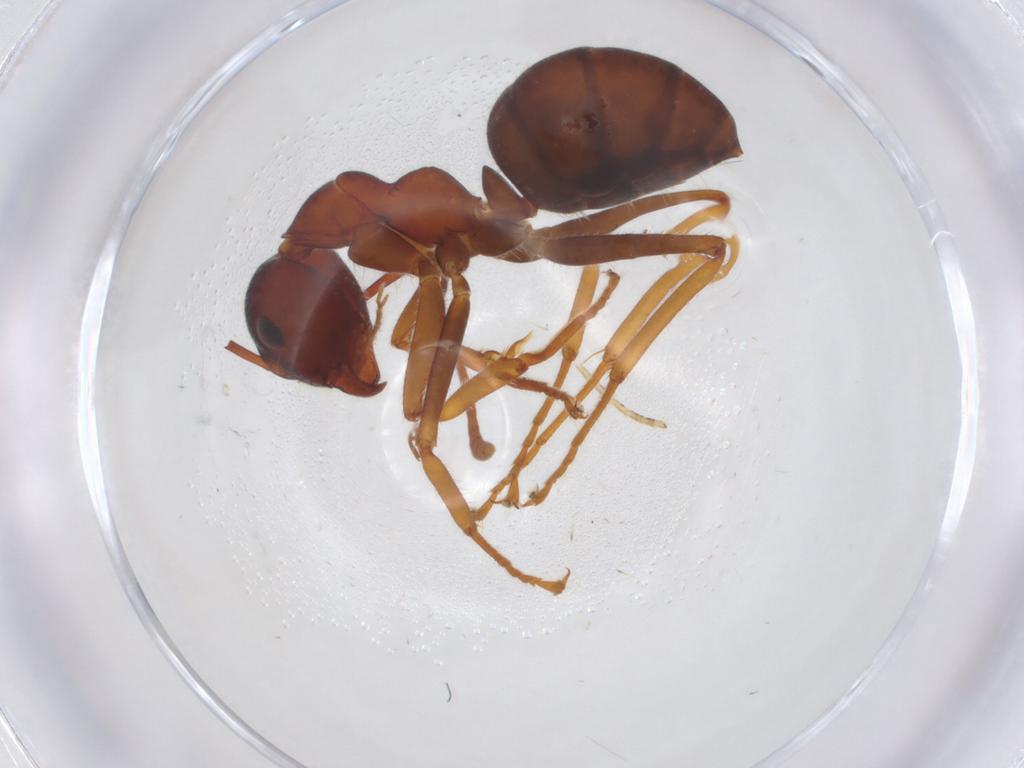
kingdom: Animalia
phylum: Arthropoda
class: Insecta
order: Hymenoptera
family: Formicidae
